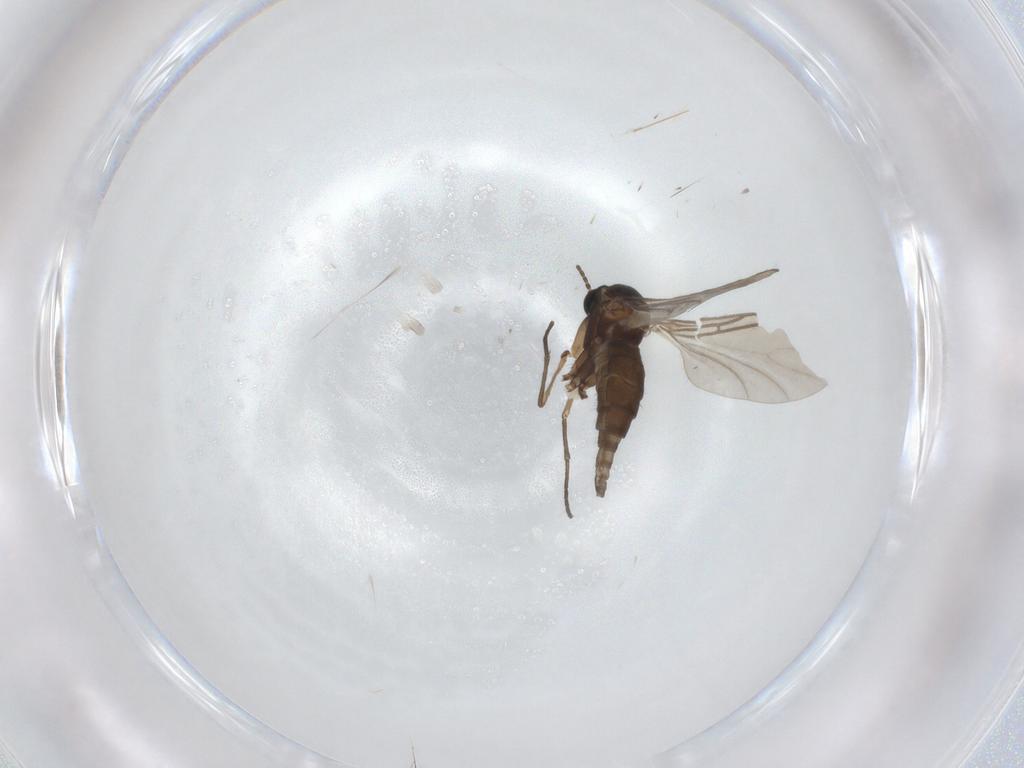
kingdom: Animalia
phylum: Arthropoda
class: Insecta
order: Diptera
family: Sciaridae
